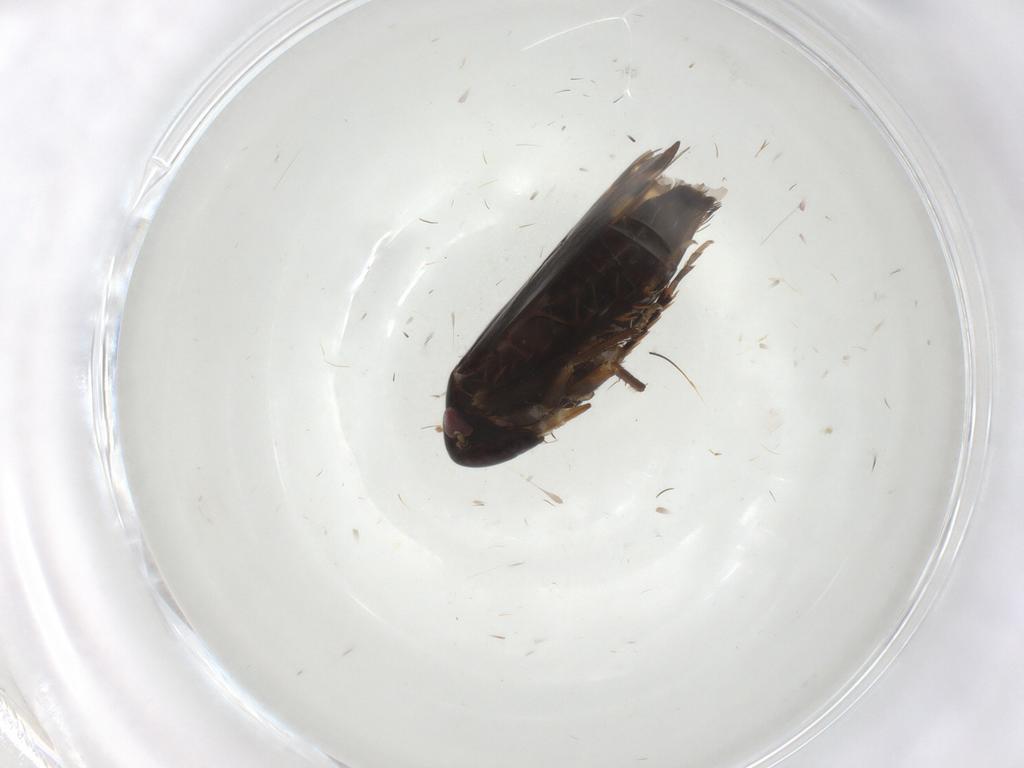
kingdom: Animalia
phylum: Arthropoda
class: Insecta
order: Hemiptera
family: Cicadellidae
